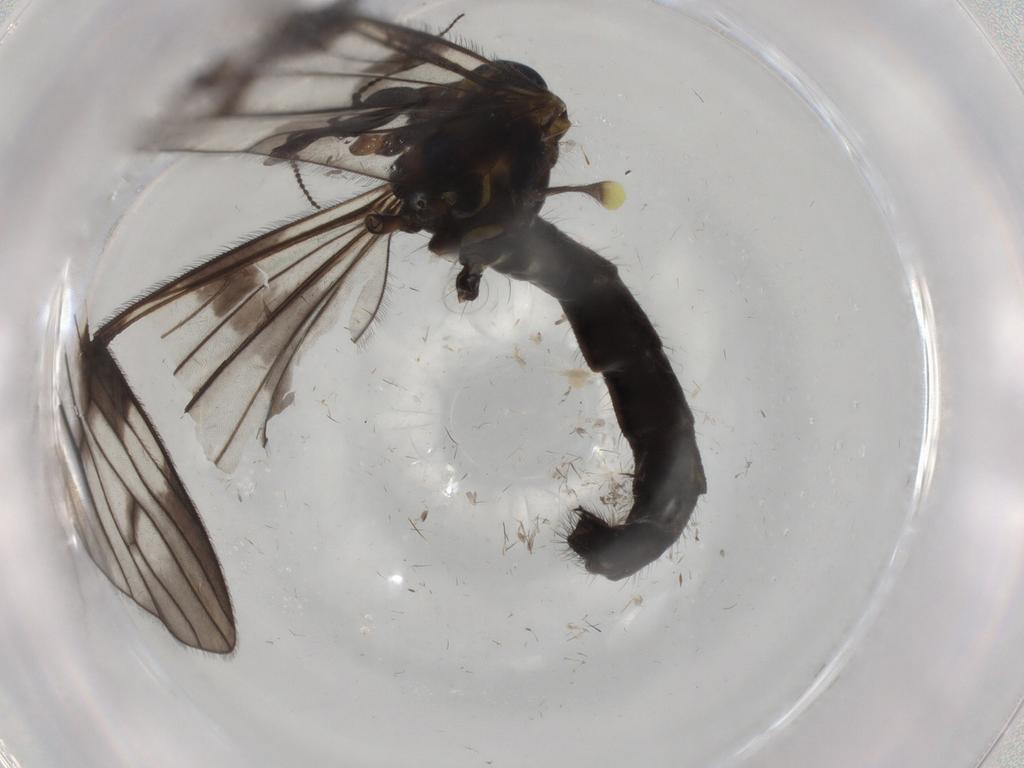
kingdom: Animalia
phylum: Arthropoda
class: Insecta
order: Diptera
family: Limoniidae
